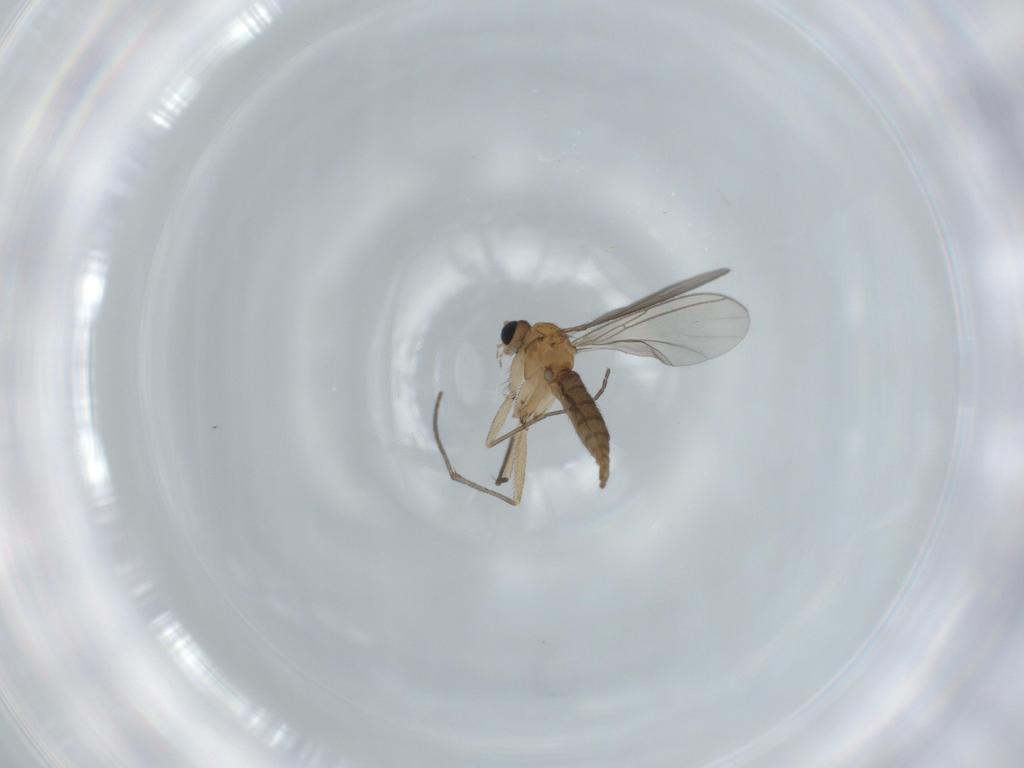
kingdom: Animalia
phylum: Arthropoda
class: Insecta
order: Diptera
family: Sciaridae
